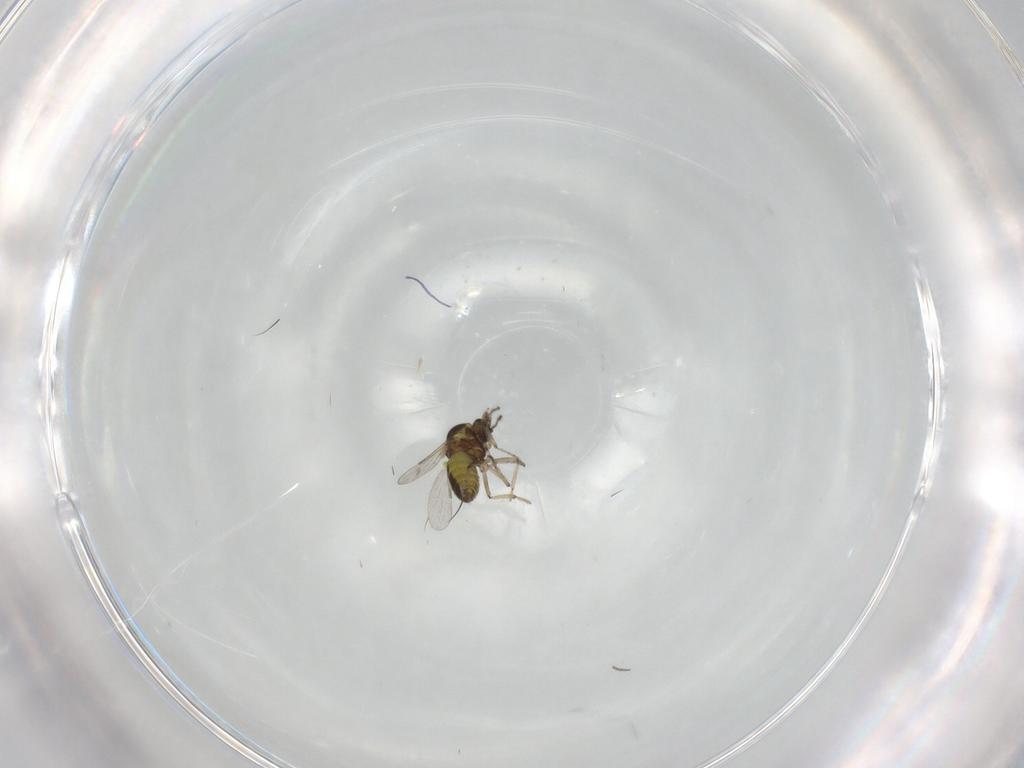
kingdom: Animalia
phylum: Arthropoda
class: Insecta
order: Diptera
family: Ceratopogonidae
